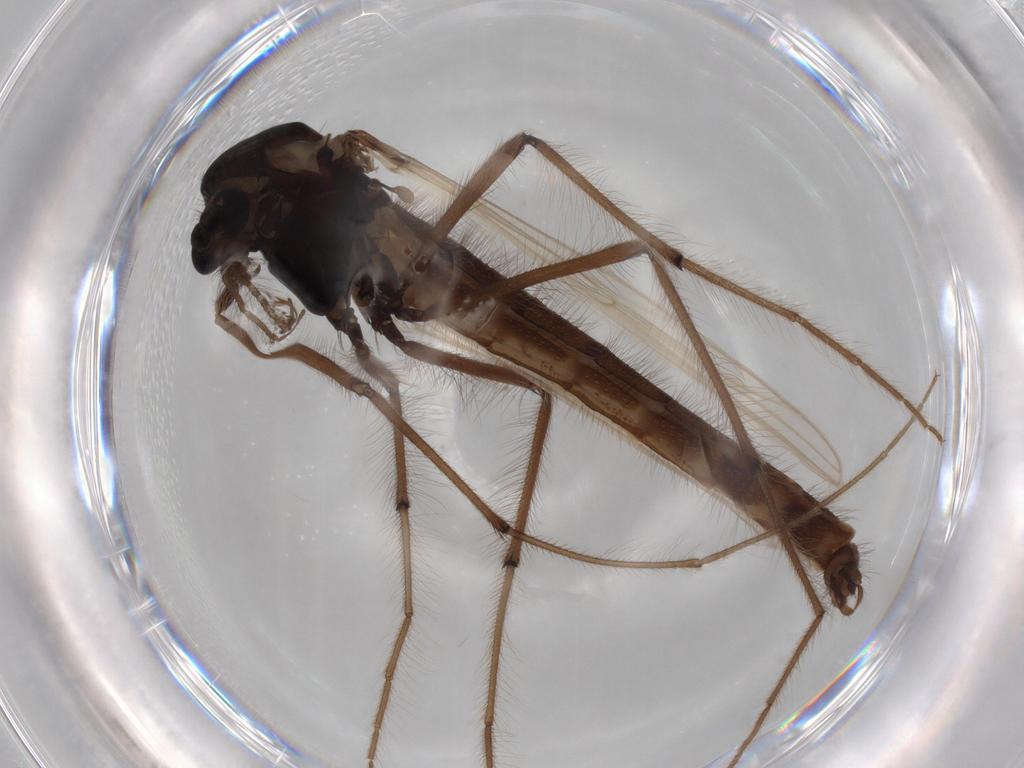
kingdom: Animalia
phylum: Arthropoda
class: Insecta
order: Diptera
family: Chironomidae
